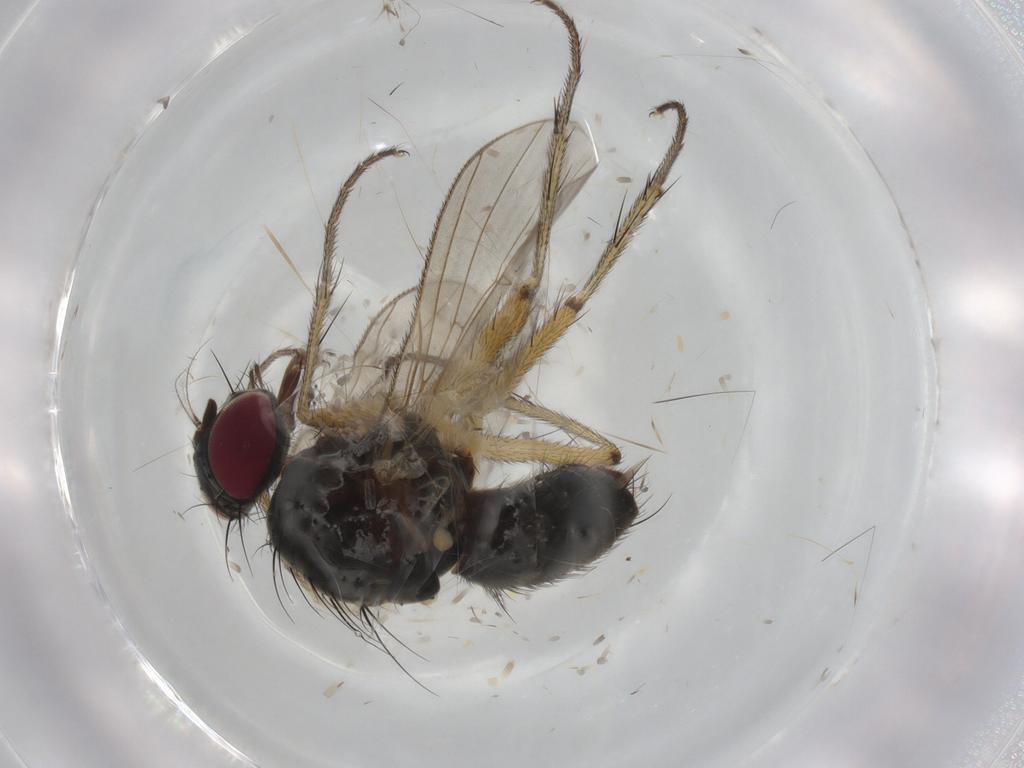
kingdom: Animalia
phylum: Arthropoda
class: Insecta
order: Diptera
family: Muscidae
